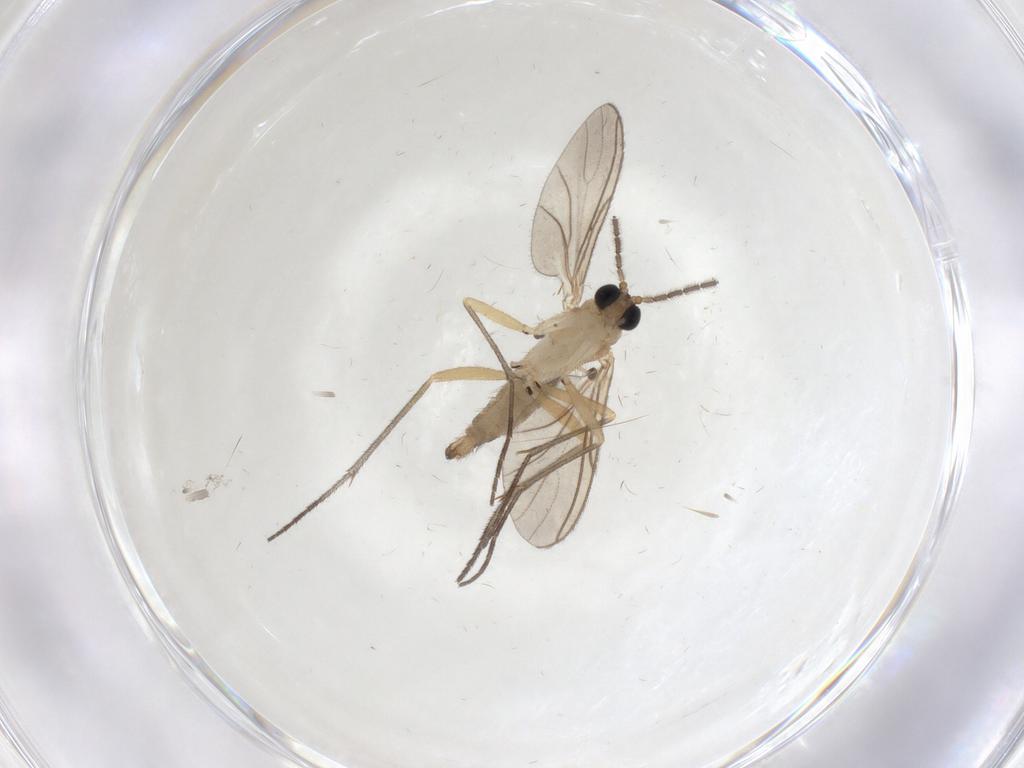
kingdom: Animalia
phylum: Arthropoda
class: Insecta
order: Diptera
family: Sciaridae
